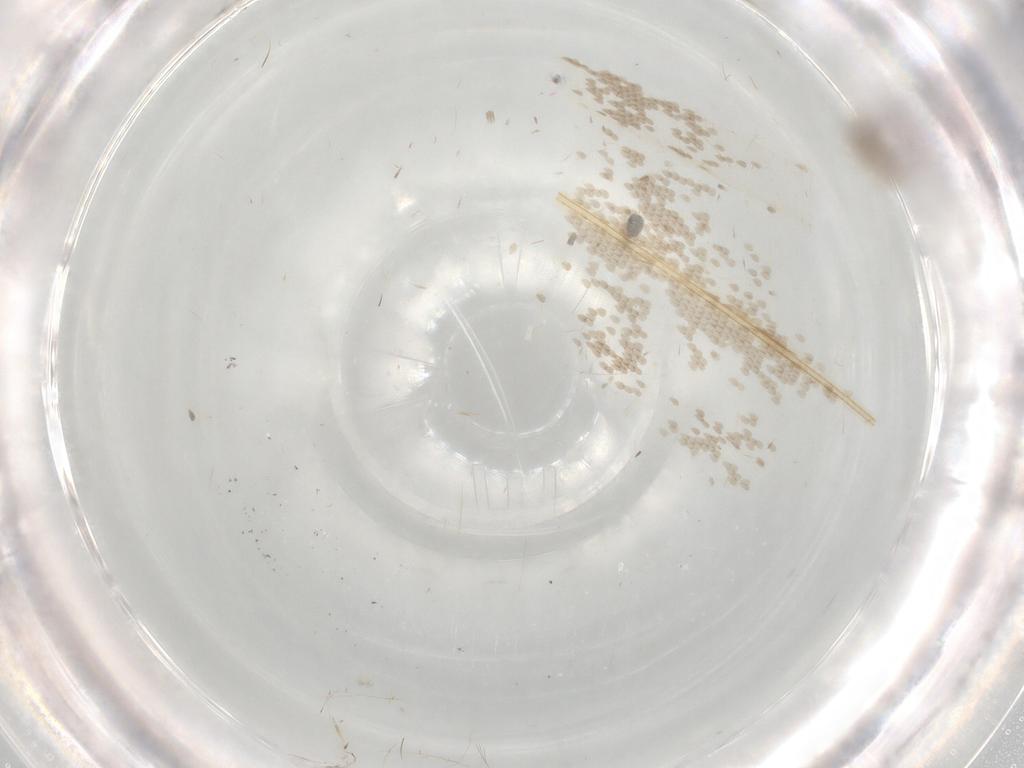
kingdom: Animalia
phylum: Arthropoda
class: Insecta
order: Diptera
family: Cecidomyiidae
